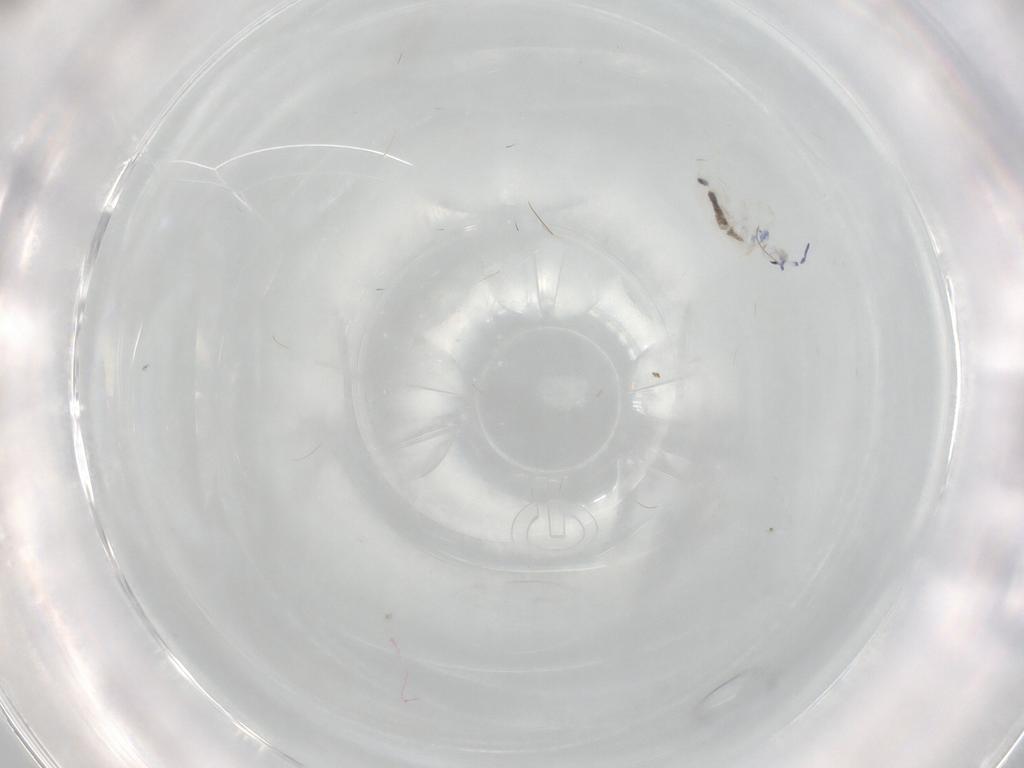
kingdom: Animalia
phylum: Arthropoda
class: Collembola
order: Entomobryomorpha
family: Entomobryidae
